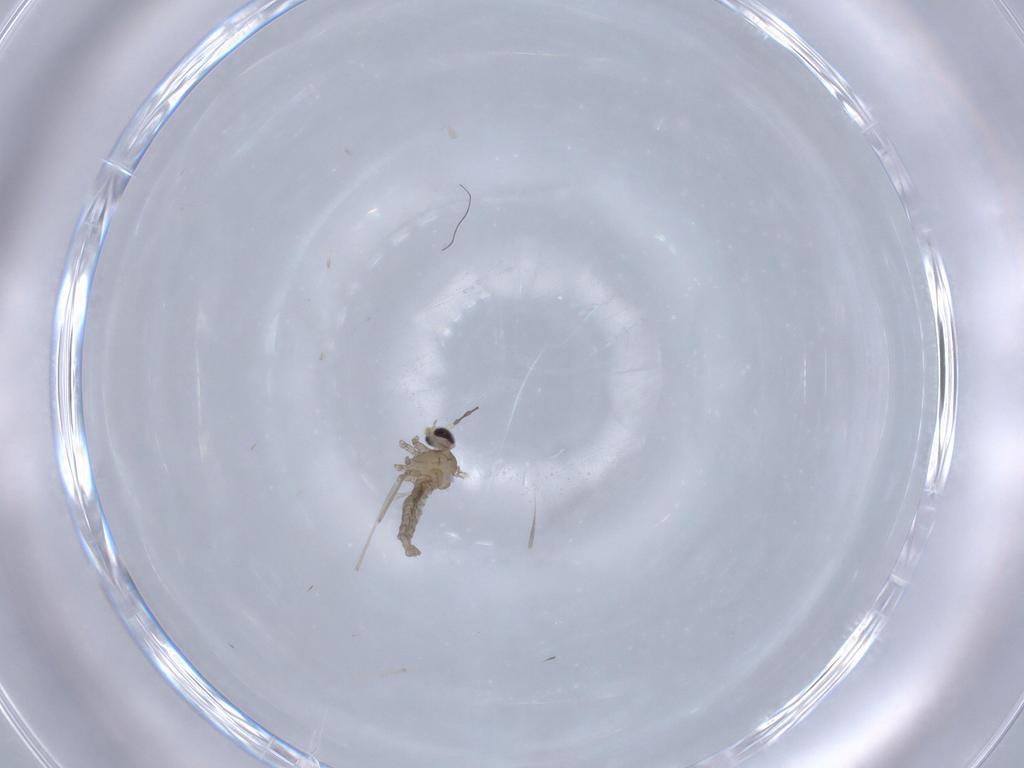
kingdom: Animalia
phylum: Arthropoda
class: Insecta
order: Diptera
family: Cecidomyiidae
